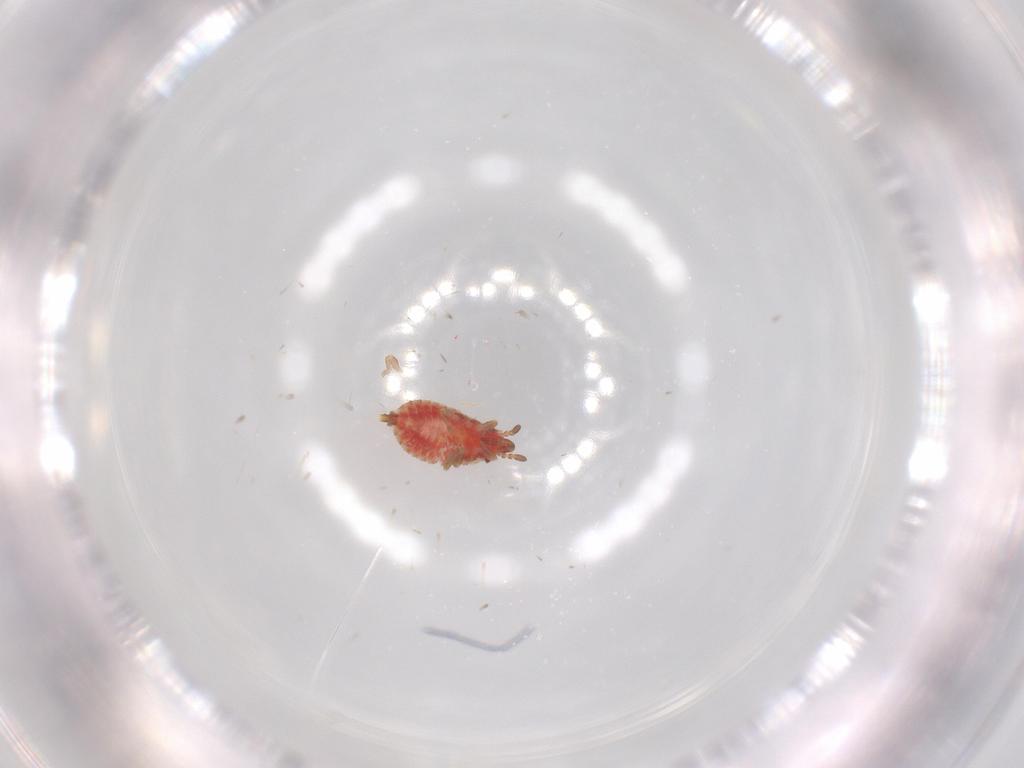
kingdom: Animalia
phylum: Arthropoda
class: Insecta
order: Hemiptera
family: Aradidae
